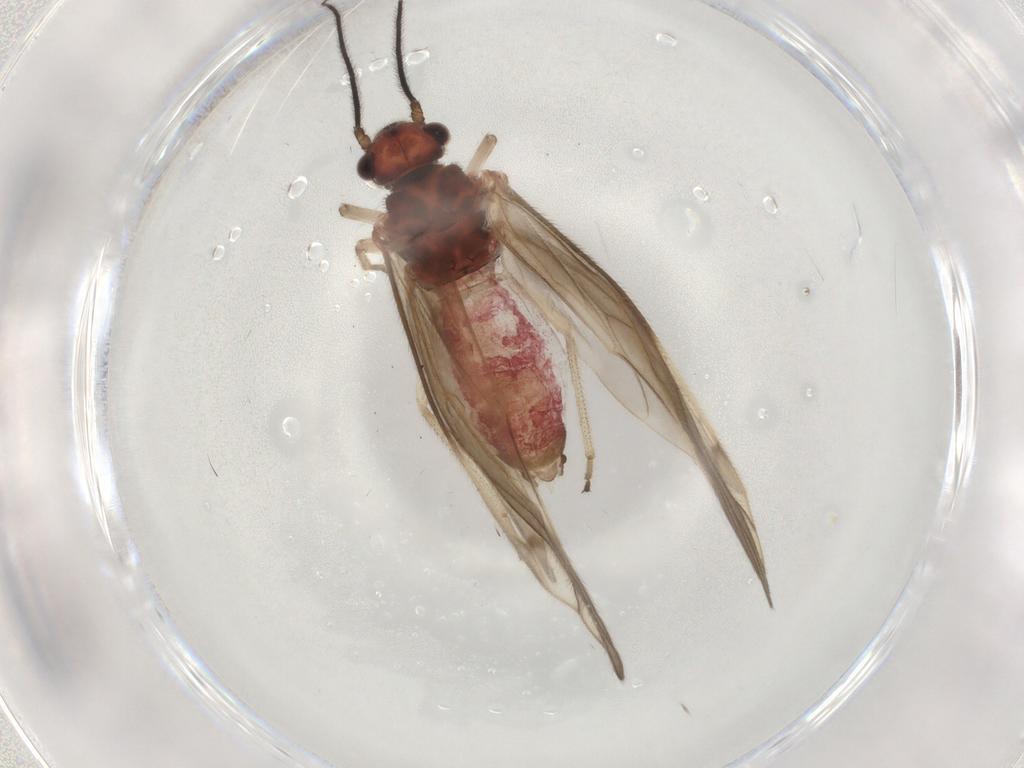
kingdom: Animalia
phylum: Arthropoda
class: Insecta
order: Psocodea
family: Caeciliusidae
